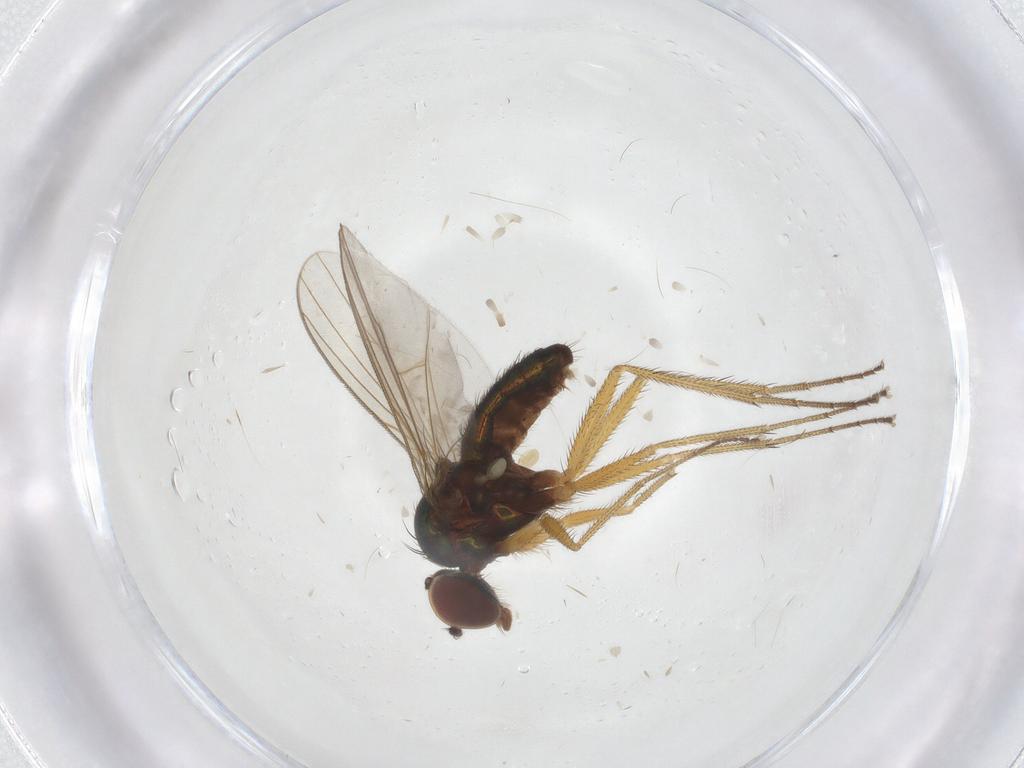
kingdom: Animalia
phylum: Arthropoda
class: Insecta
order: Diptera
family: Dolichopodidae
